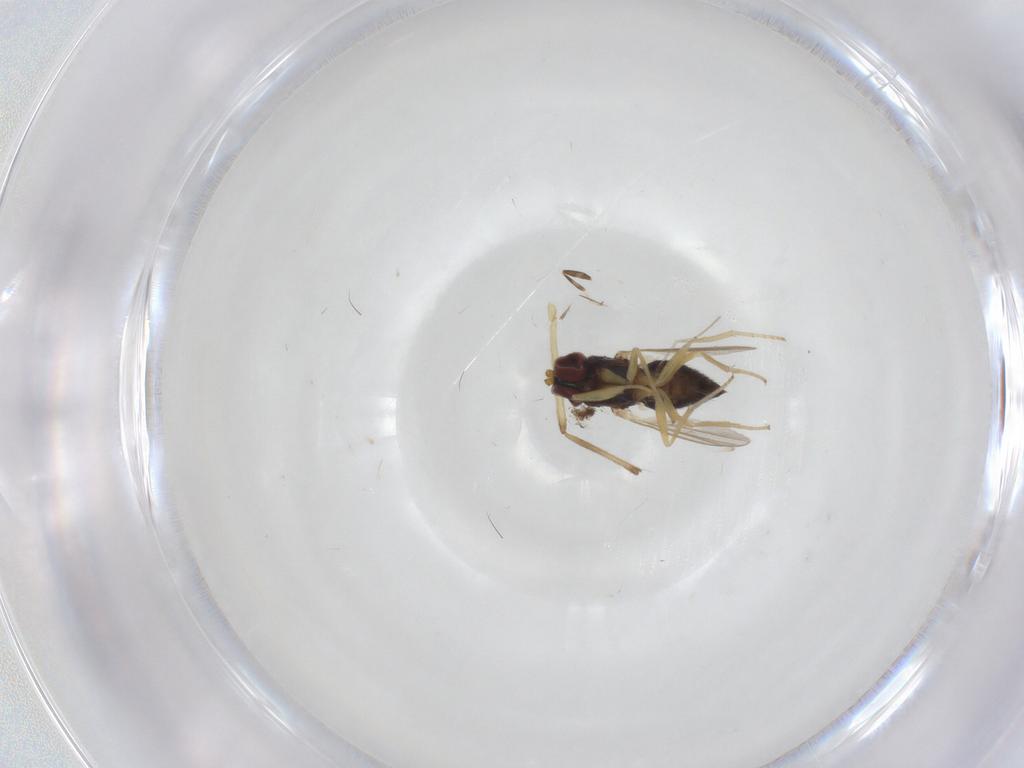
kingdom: Animalia
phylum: Arthropoda
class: Insecta
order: Diptera
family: Dolichopodidae
